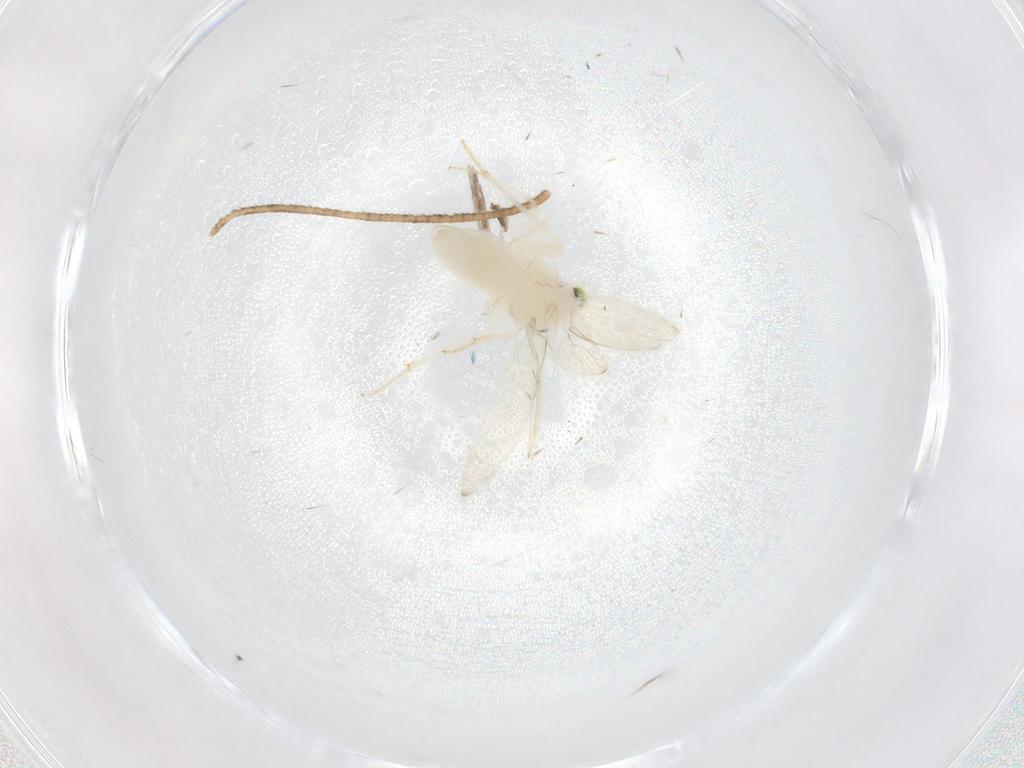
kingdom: Animalia
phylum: Arthropoda
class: Insecta
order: Psocodea
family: Lepidopsocidae
